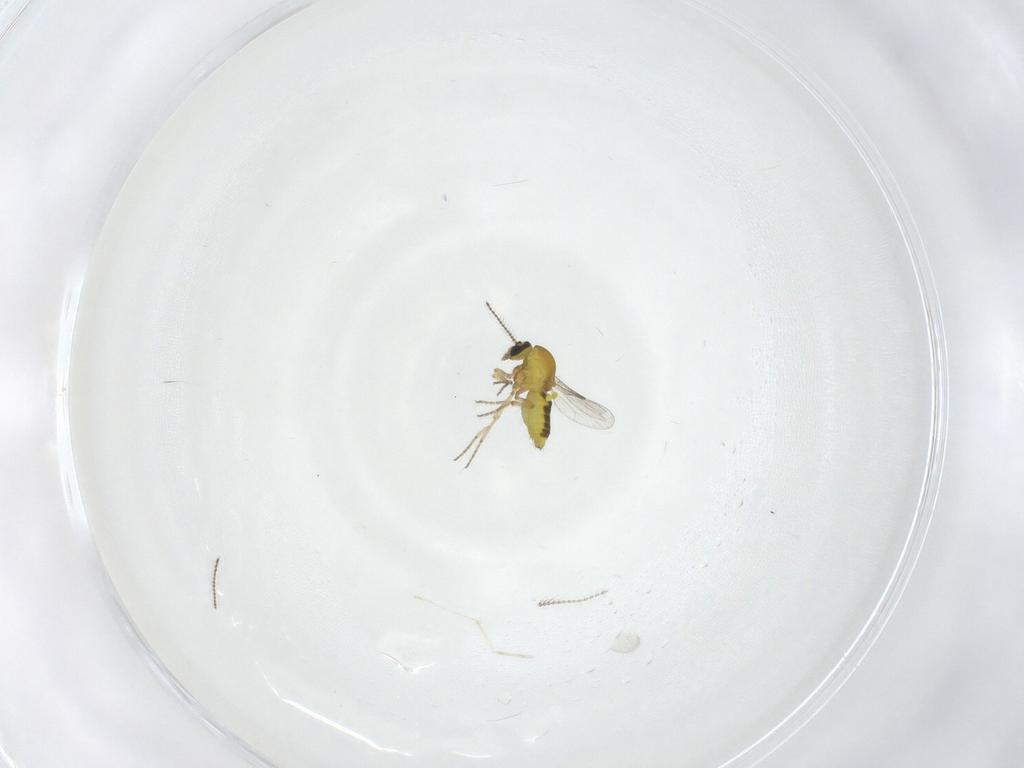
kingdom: Animalia
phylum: Arthropoda
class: Insecta
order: Diptera
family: Ceratopogonidae
